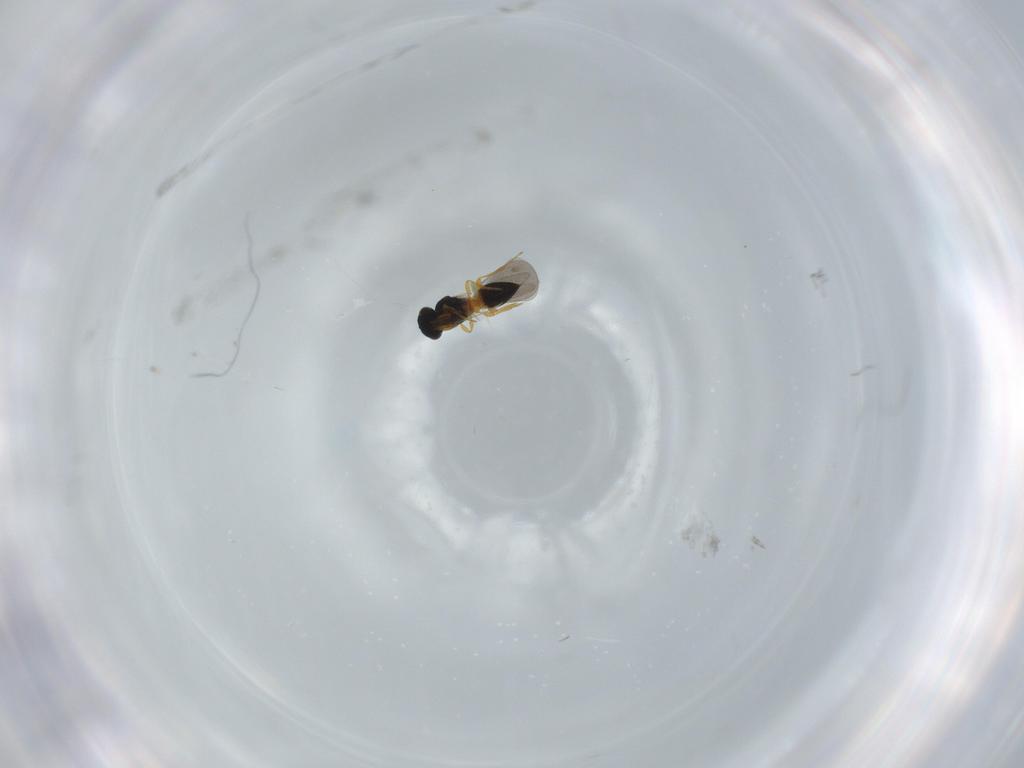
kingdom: Animalia
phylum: Arthropoda
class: Insecta
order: Hymenoptera
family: Platygastridae
